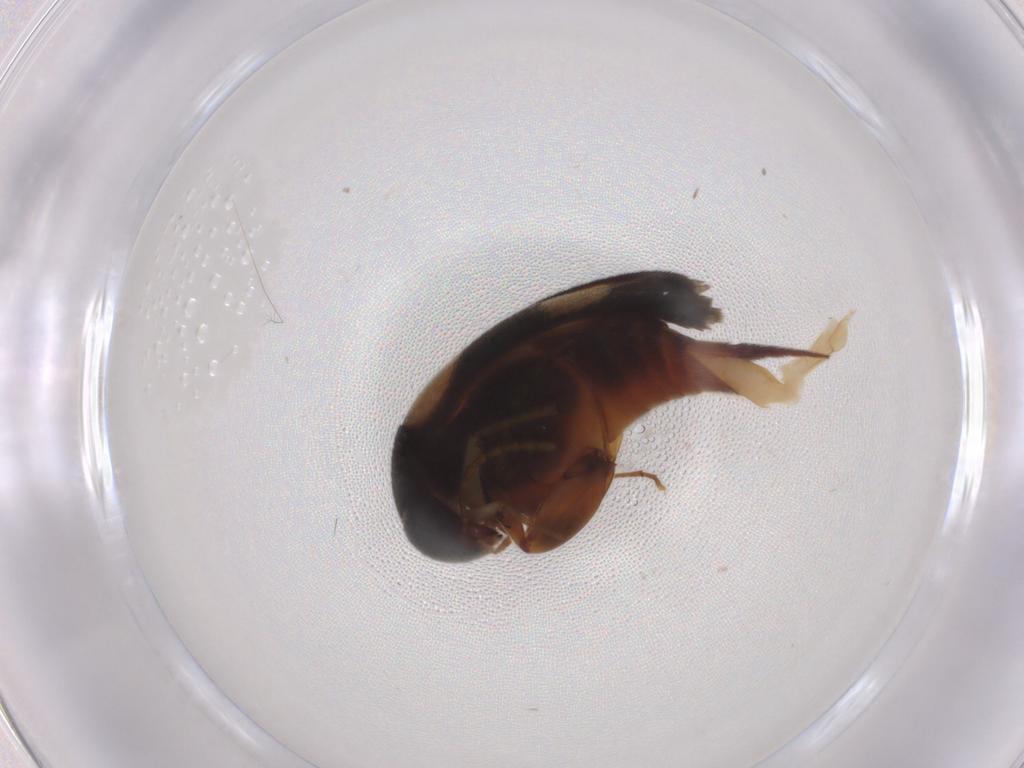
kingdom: Animalia
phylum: Arthropoda
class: Insecta
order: Coleoptera
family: Mordellidae
